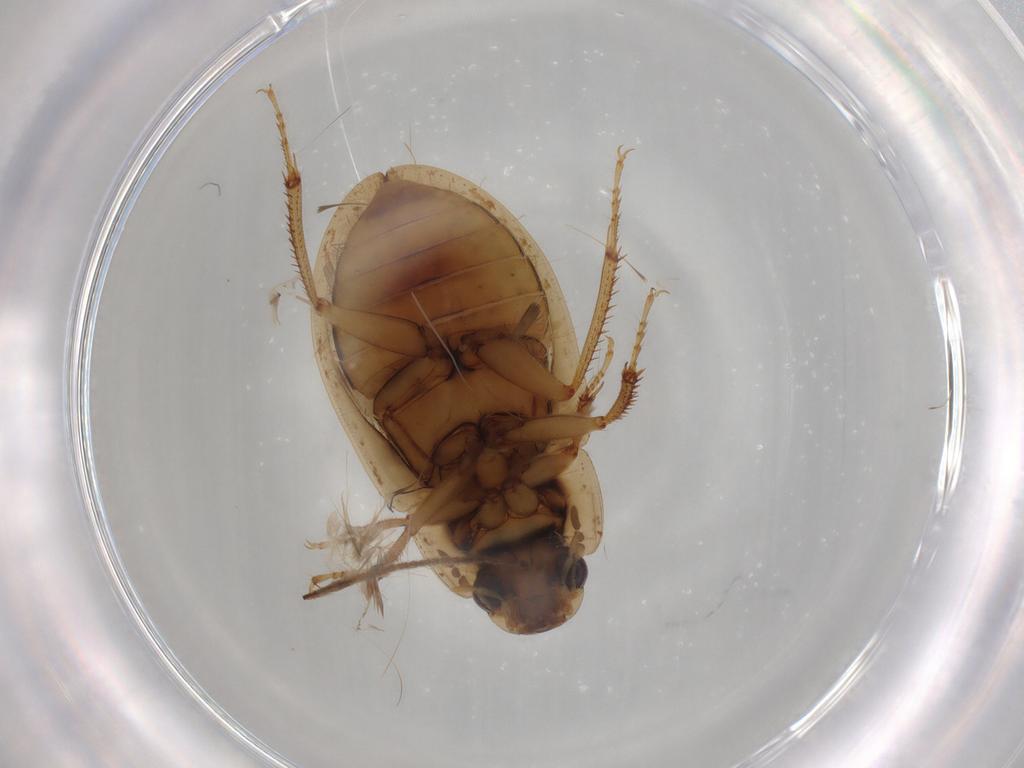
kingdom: Animalia
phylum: Arthropoda
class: Insecta
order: Coleoptera
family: Hydrophilidae
